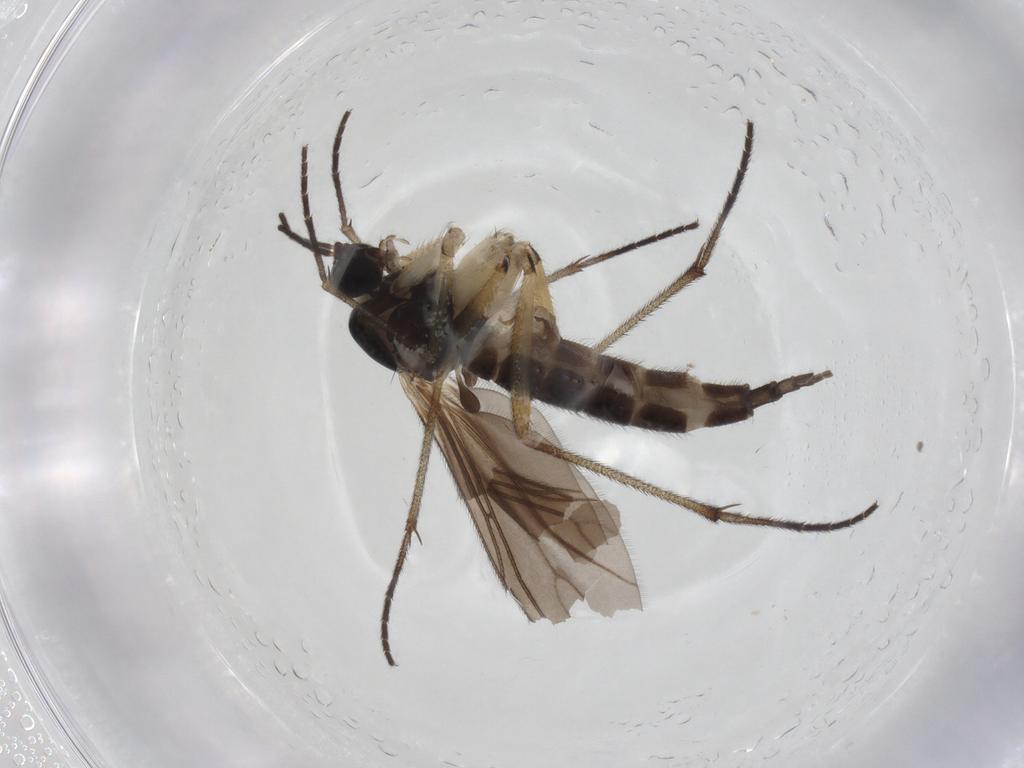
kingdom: Animalia
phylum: Arthropoda
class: Insecta
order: Diptera
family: Sciaridae
